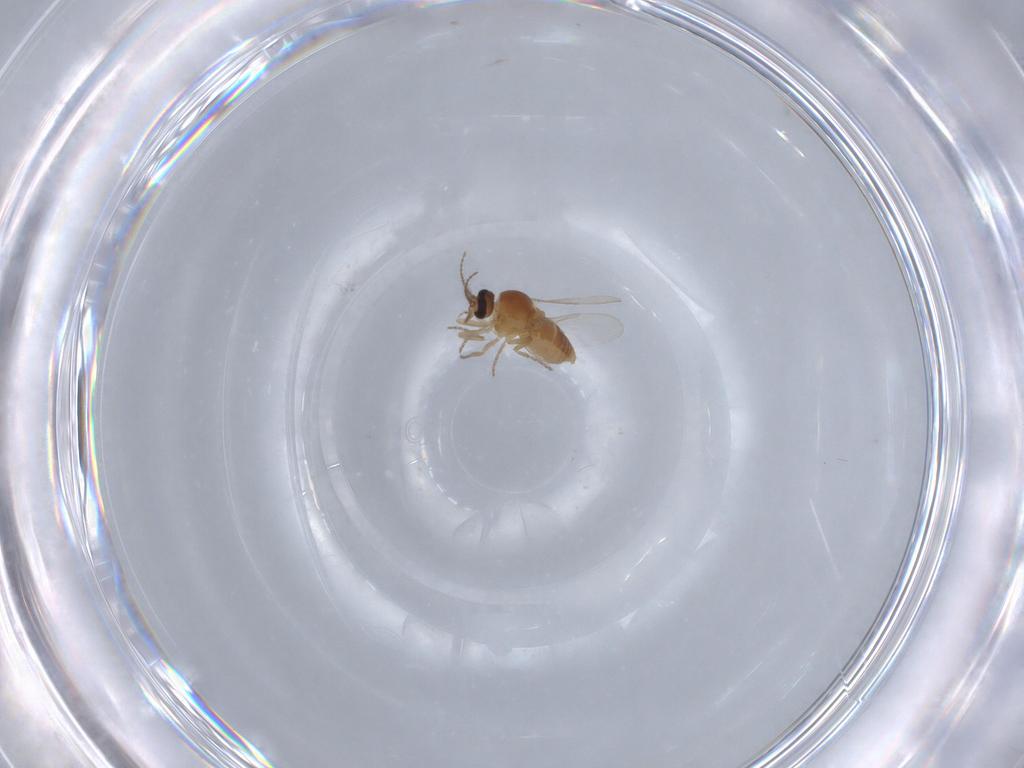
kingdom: Animalia
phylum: Arthropoda
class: Insecta
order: Diptera
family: Ceratopogonidae
